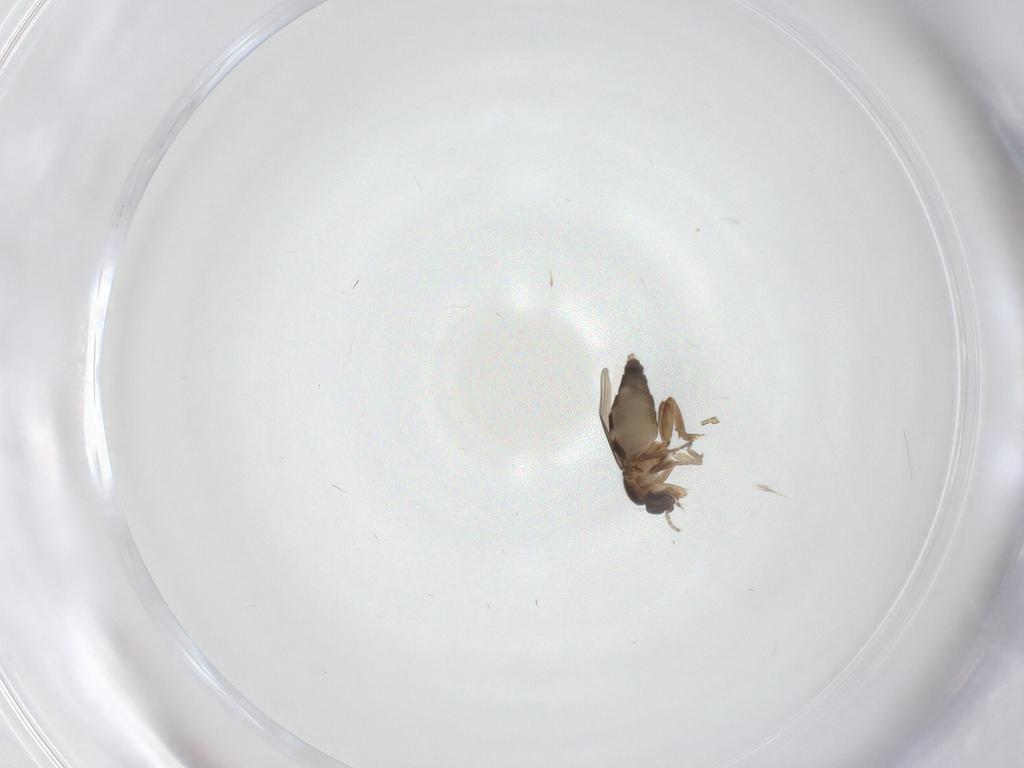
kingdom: Animalia
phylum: Arthropoda
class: Insecta
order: Diptera
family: Phoridae
